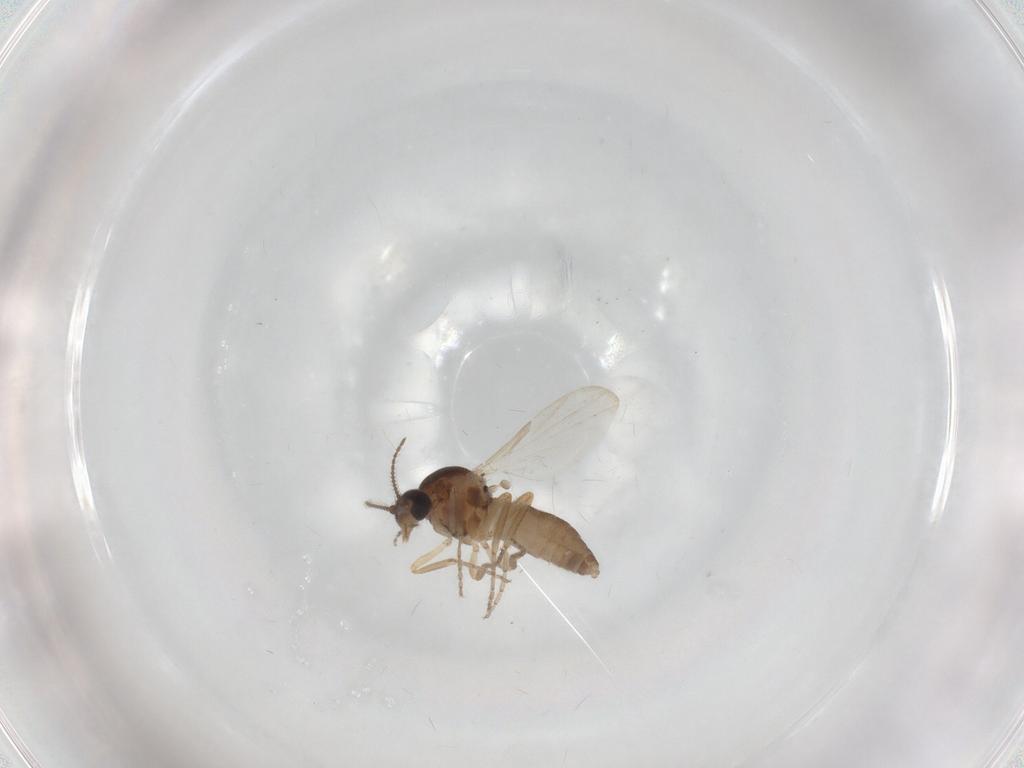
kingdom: Animalia
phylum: Arthropoda
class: Insecta
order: Diptera
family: Ceratopogonidae
